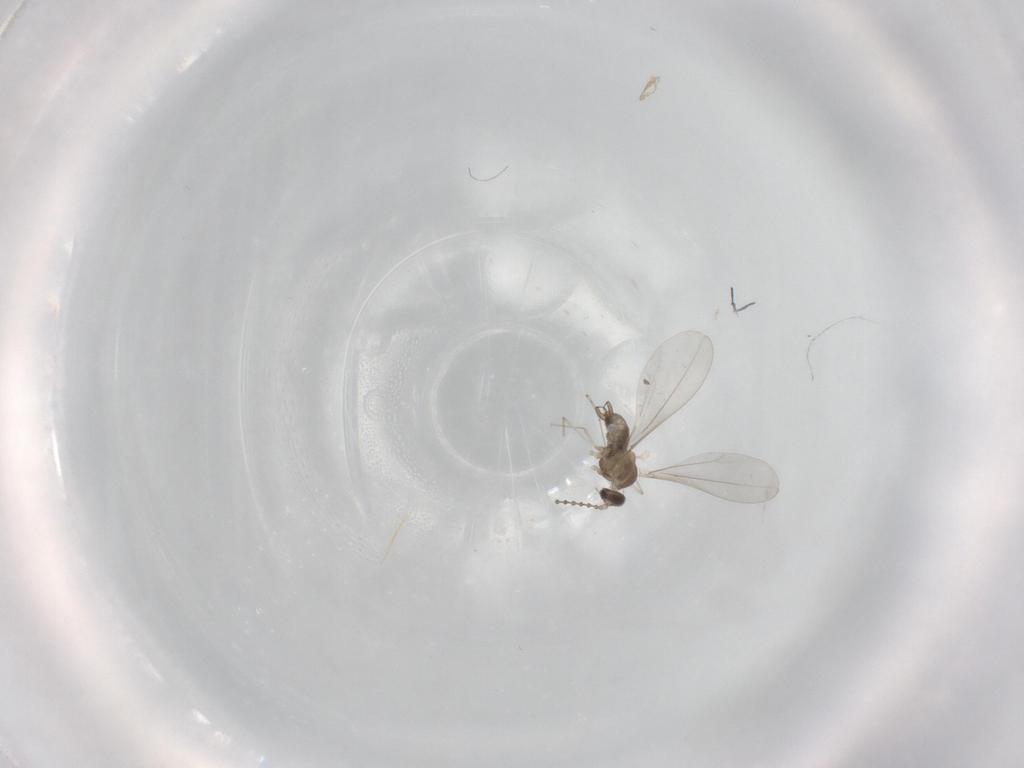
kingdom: Animalia
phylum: Arthropoda
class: Insecta
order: Diptera
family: Cecidomyiidae
